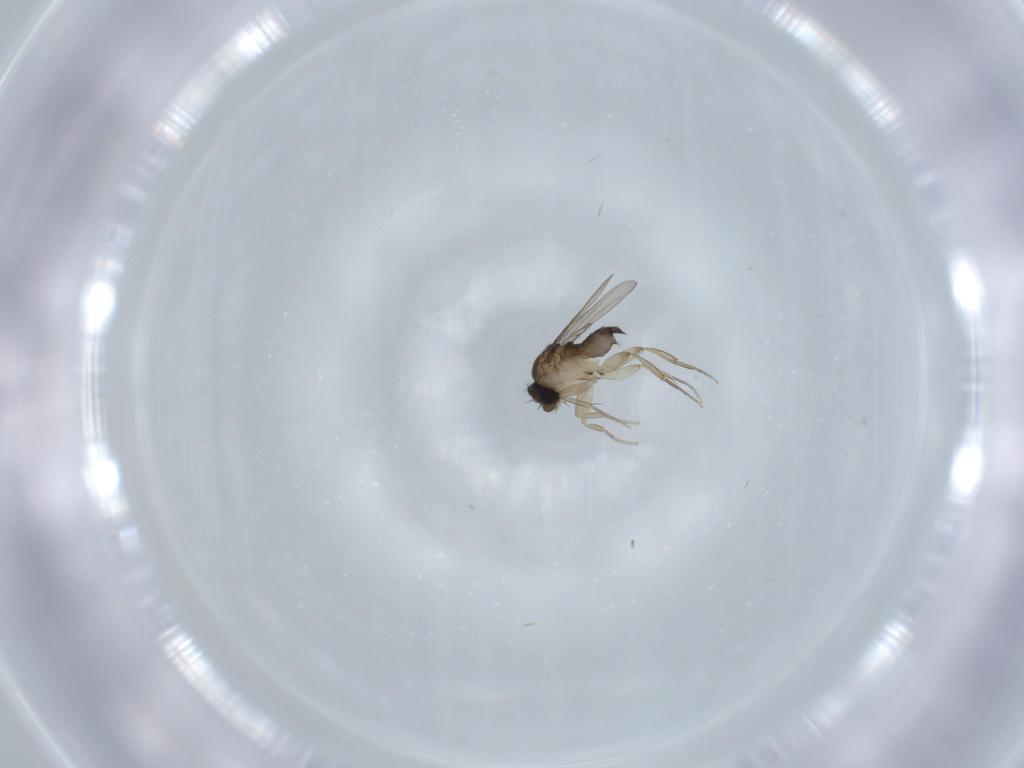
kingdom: Animalia
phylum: Arthropoda
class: Insecta
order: Diptera
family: Phoridae
